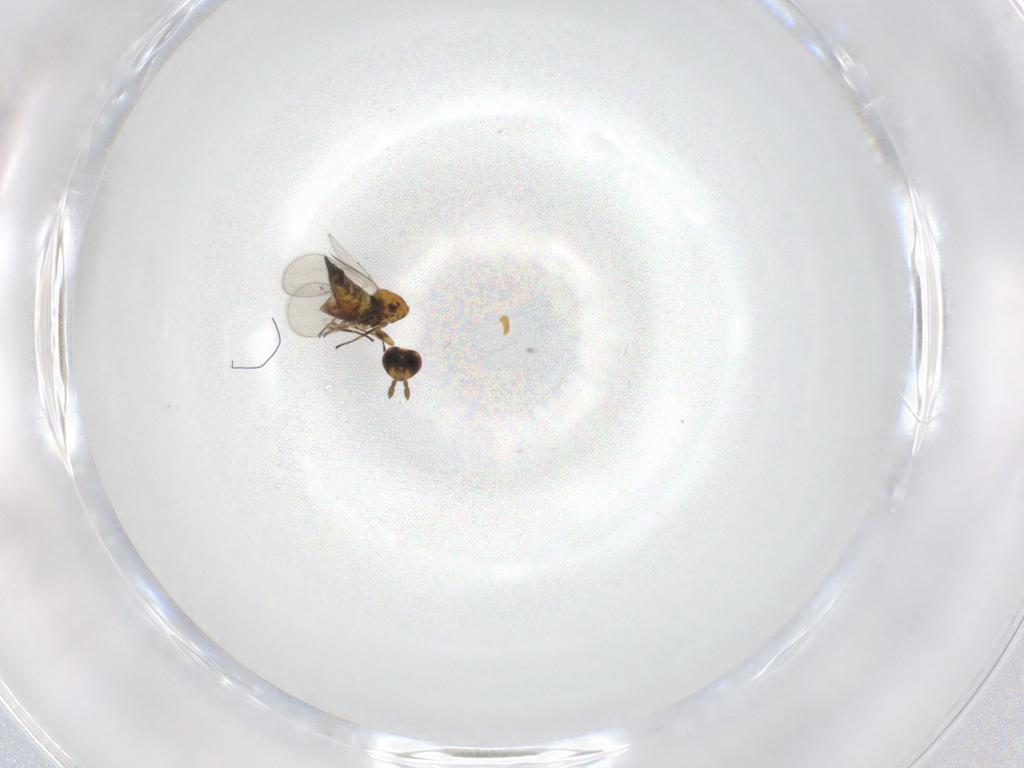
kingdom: Animalia
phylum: Arthropoda
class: Insecta
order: Hymenoptera
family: Eulophidae
